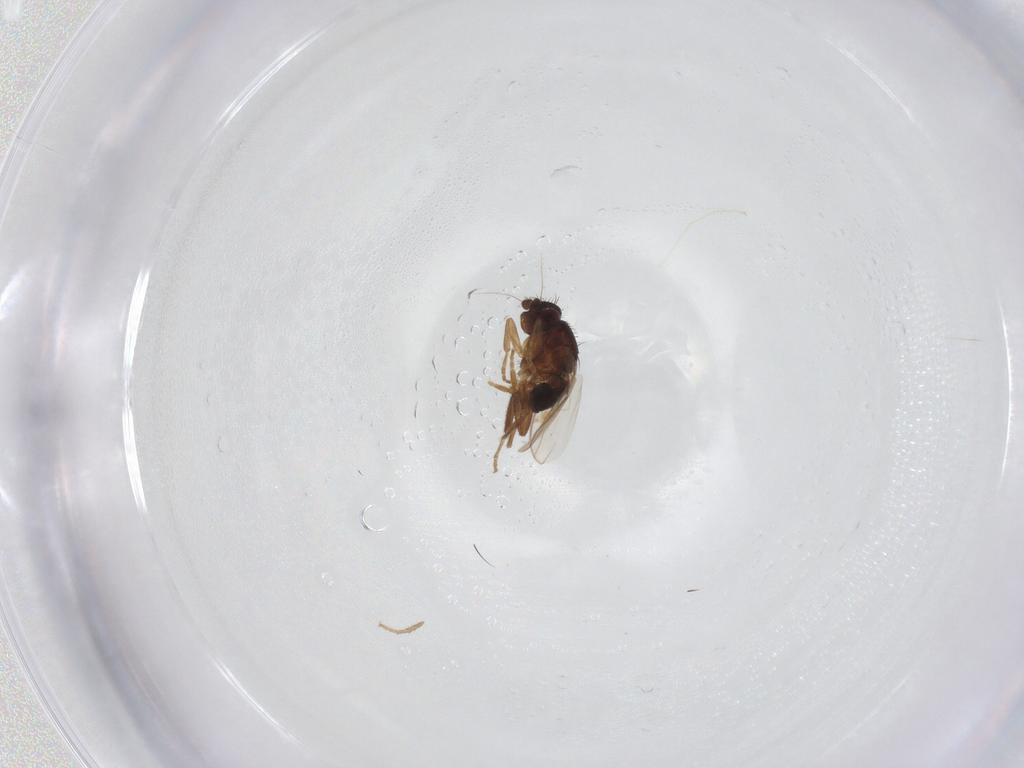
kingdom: Animalia
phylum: Arthropoda
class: Insecta
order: Diptera
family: Sphaeroceridae
